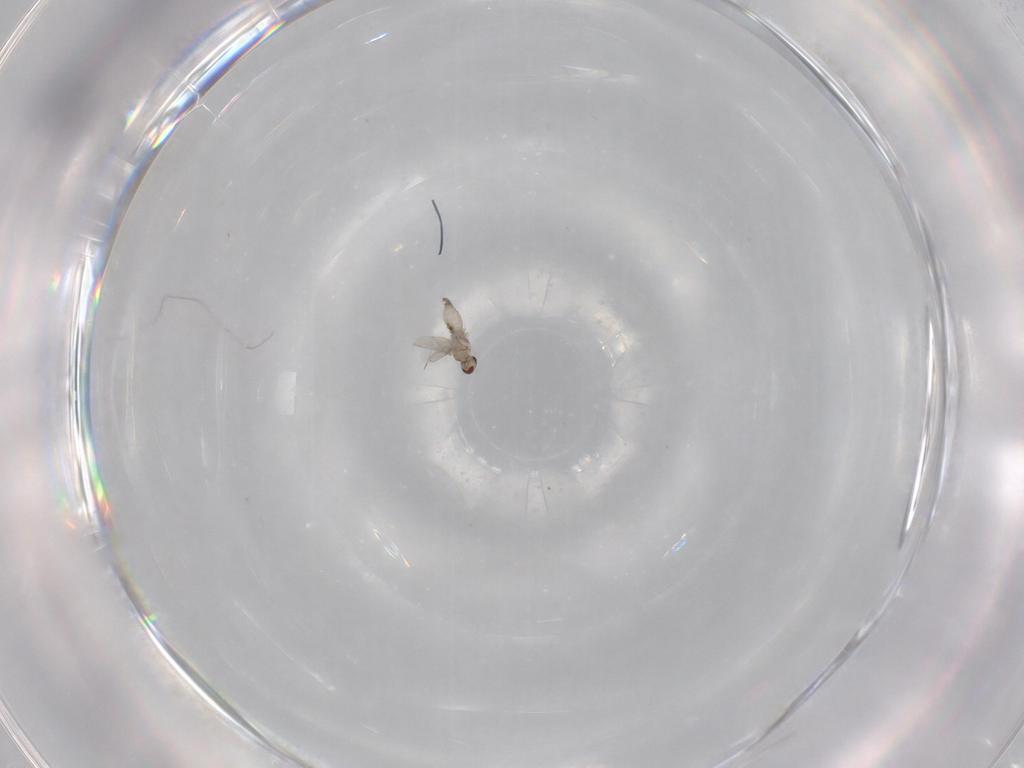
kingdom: Animalia
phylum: Arthropoda
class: Insecta
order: Diptera
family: Cecidomyiidae
